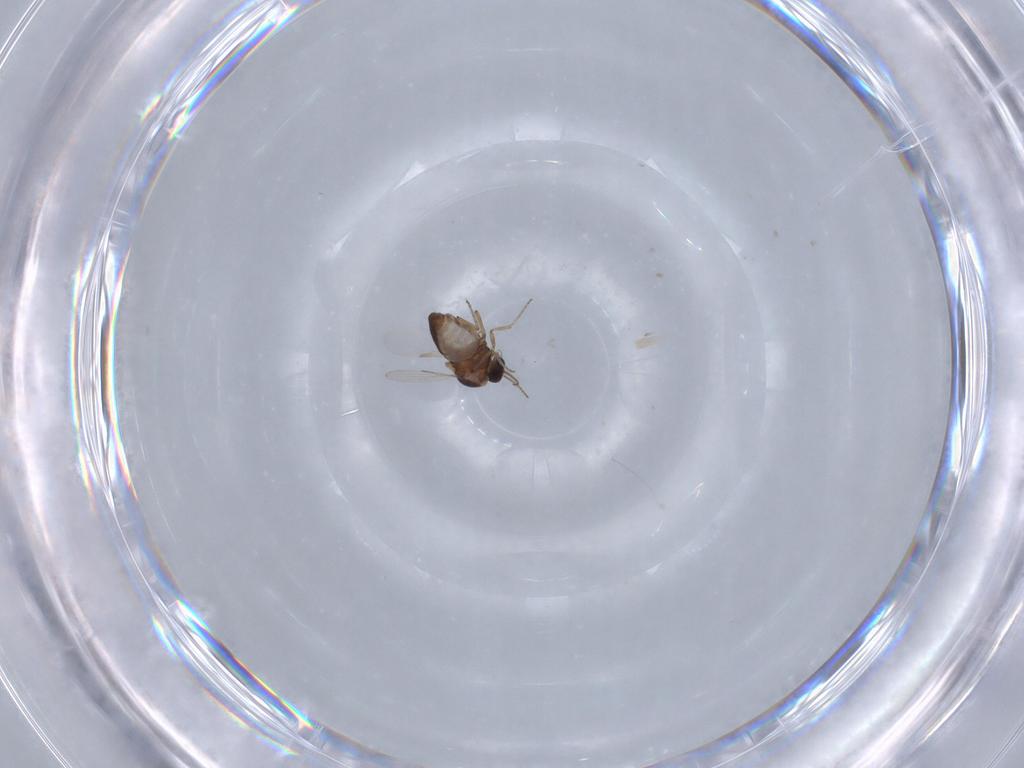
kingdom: Animalia
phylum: Arthropoda
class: Insecta
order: Diptera
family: Ceratopogonidae
